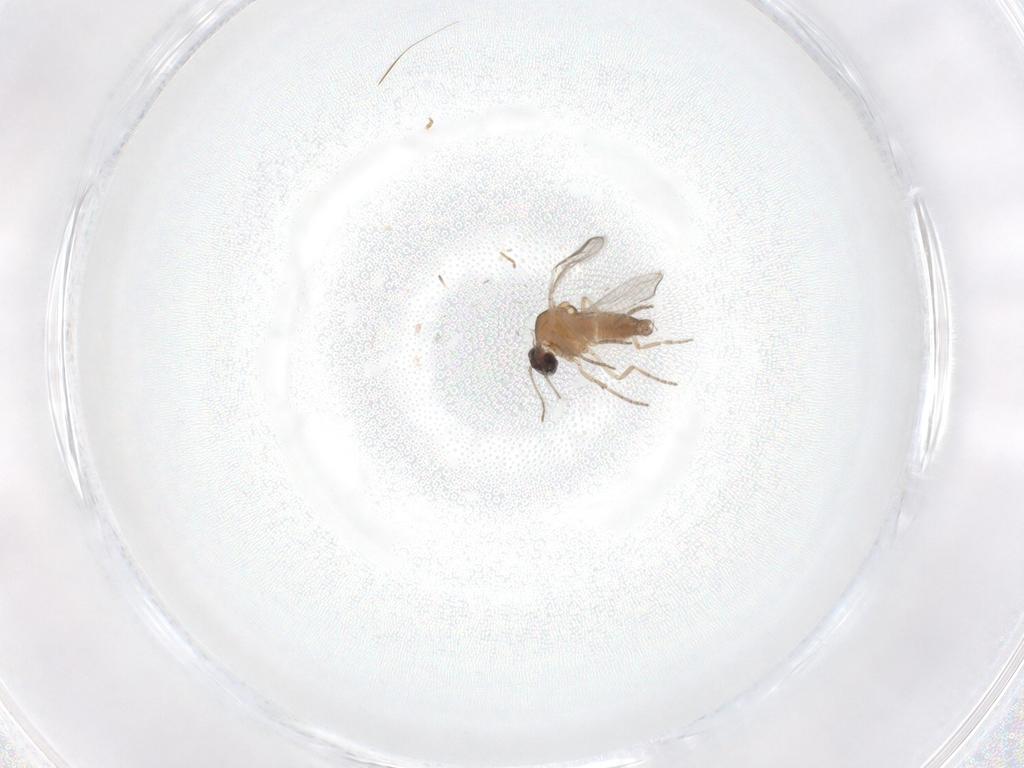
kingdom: Animalia
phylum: Arthropoda
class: Insecta
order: Diptera
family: Ceratopogonidae
